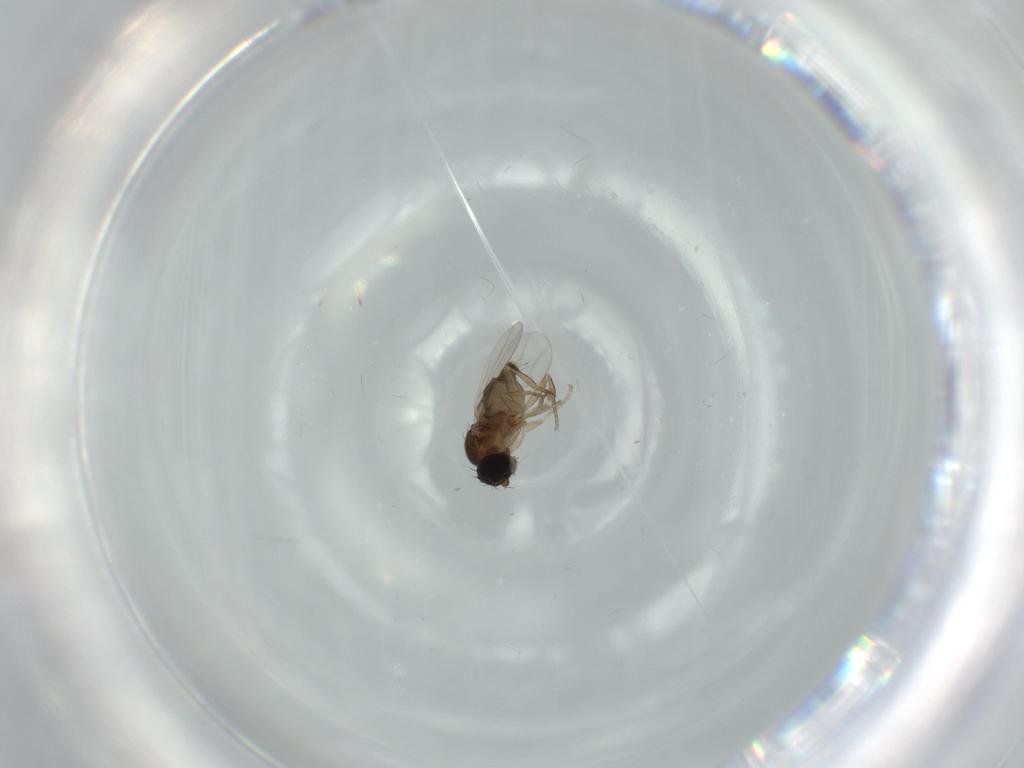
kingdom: Animalia
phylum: Arthropoda
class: Insecta
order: Diptera
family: Phoridae
